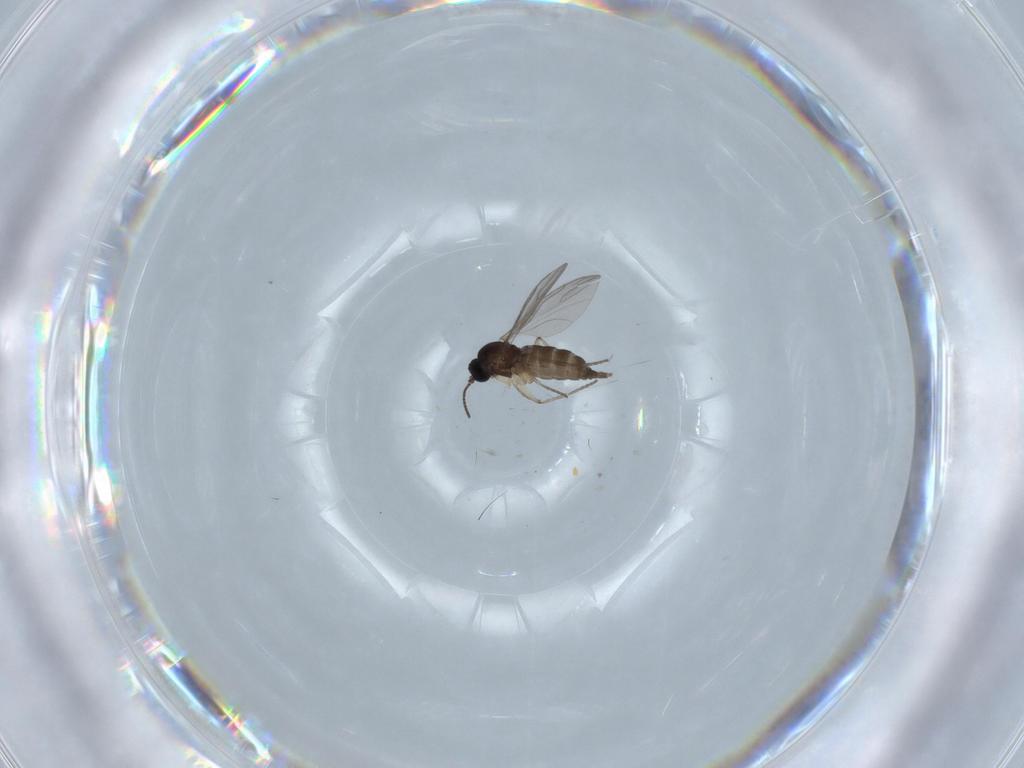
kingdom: Animalia
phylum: Arthropoda
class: Insecta
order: Diptera
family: Sciaridae
